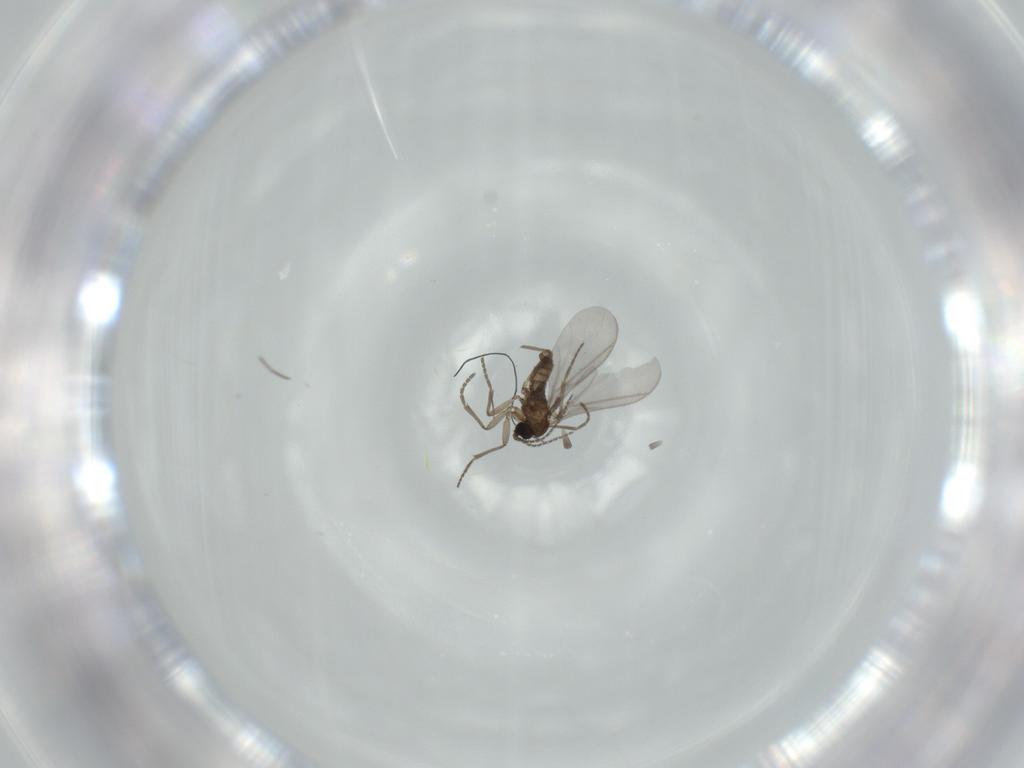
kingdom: Animalia
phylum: Arthropoda
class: Insecta
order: Diptera
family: Sciaridae
